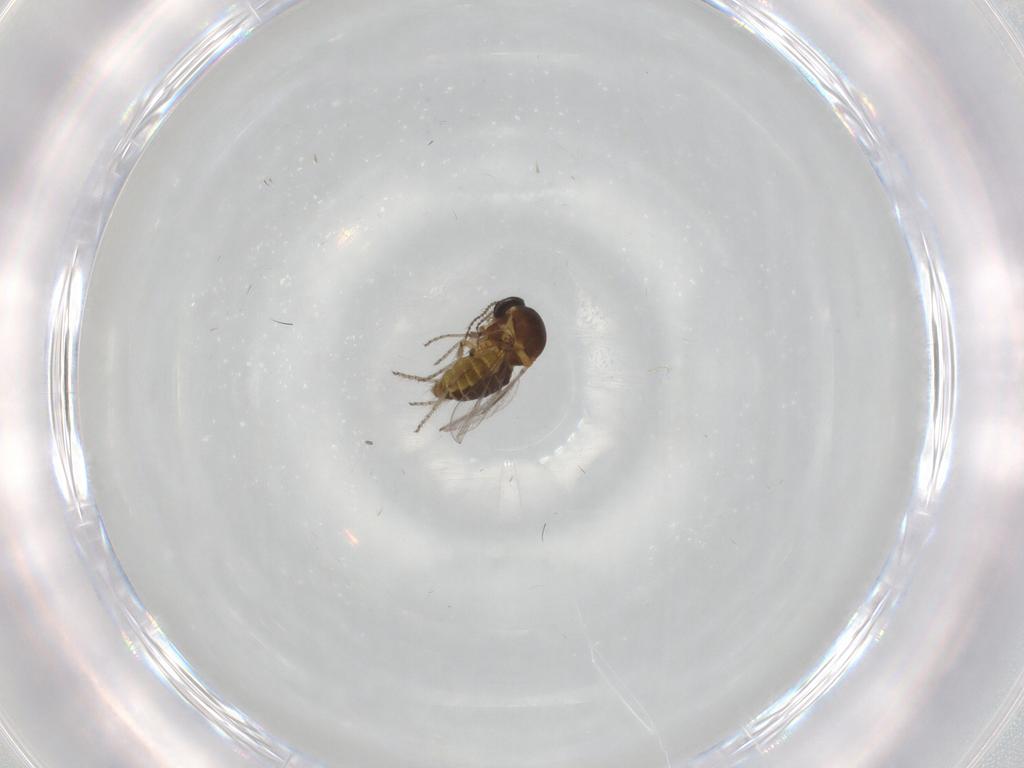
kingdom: Animalia
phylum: Arthropoda
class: Insecta
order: Diptera
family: Ceratopogonidae
